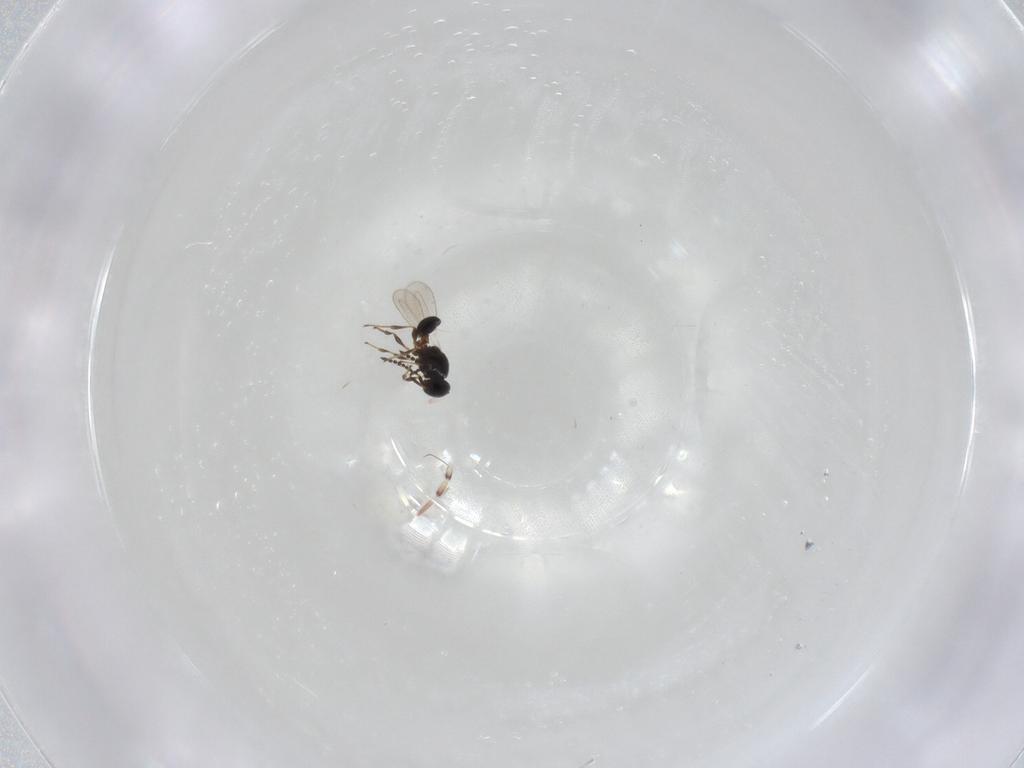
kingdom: Animalia
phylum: Arthropoda
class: Insecta
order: Hymenoptera
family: Platygastridae
